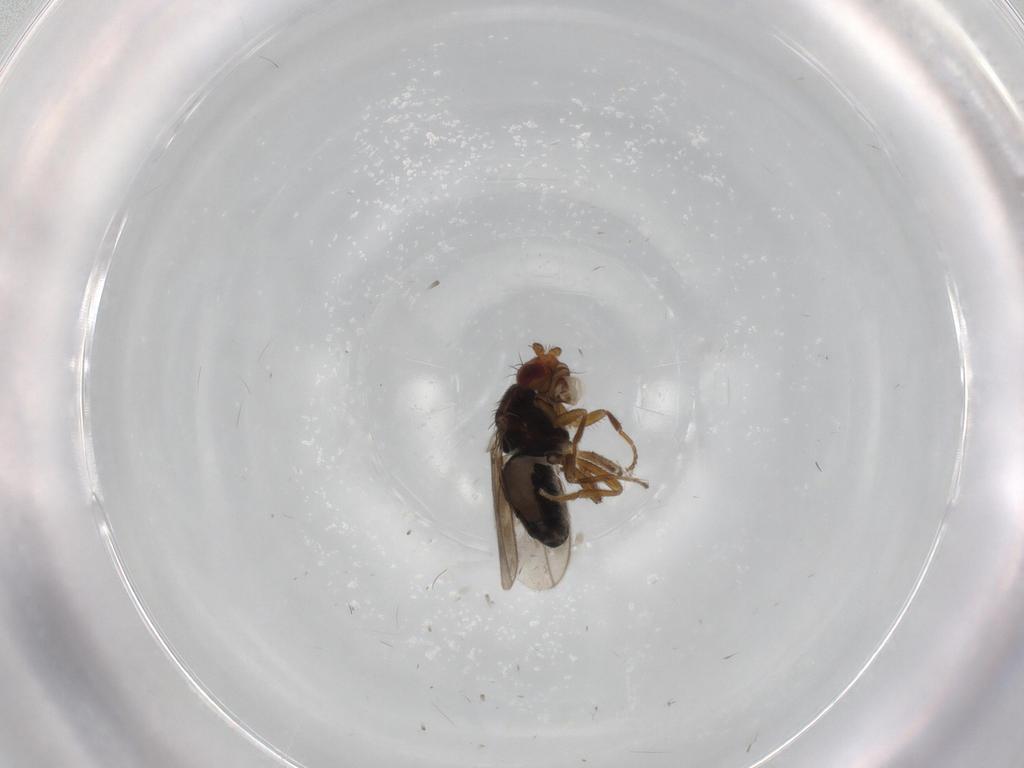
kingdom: Animalia
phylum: Arthropoda
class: Insecta
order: Diptera
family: Sphaeroceridae
